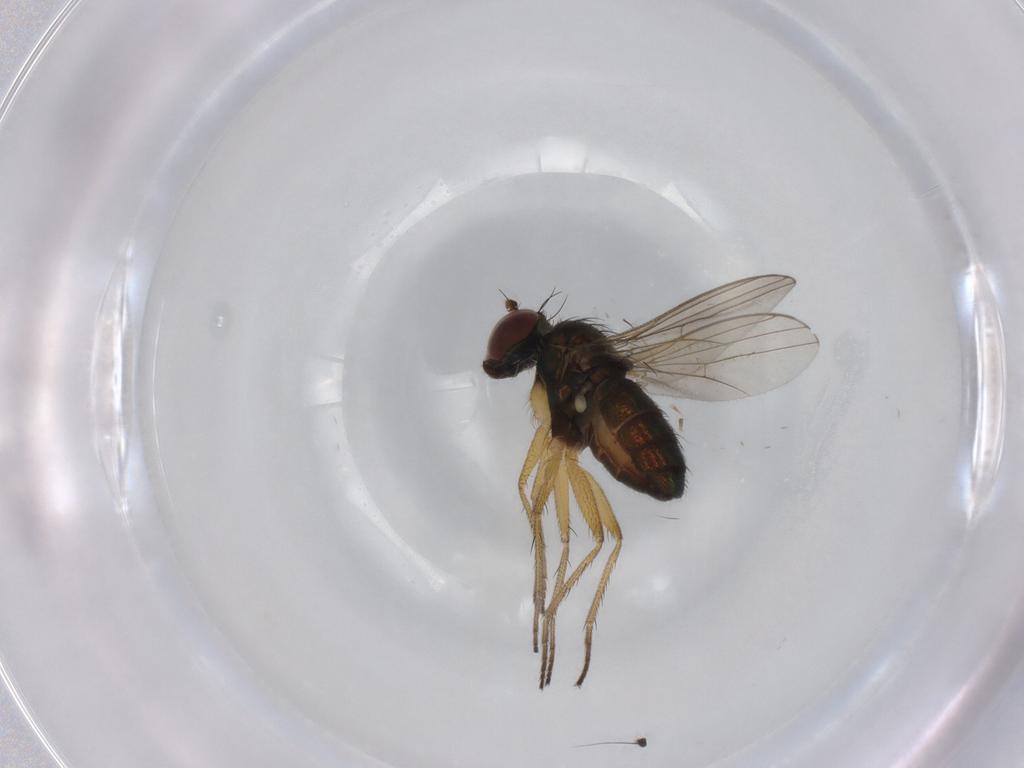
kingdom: Animalia
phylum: Arthropoda
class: Insecta
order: Diptera
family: Dolichopodidae
